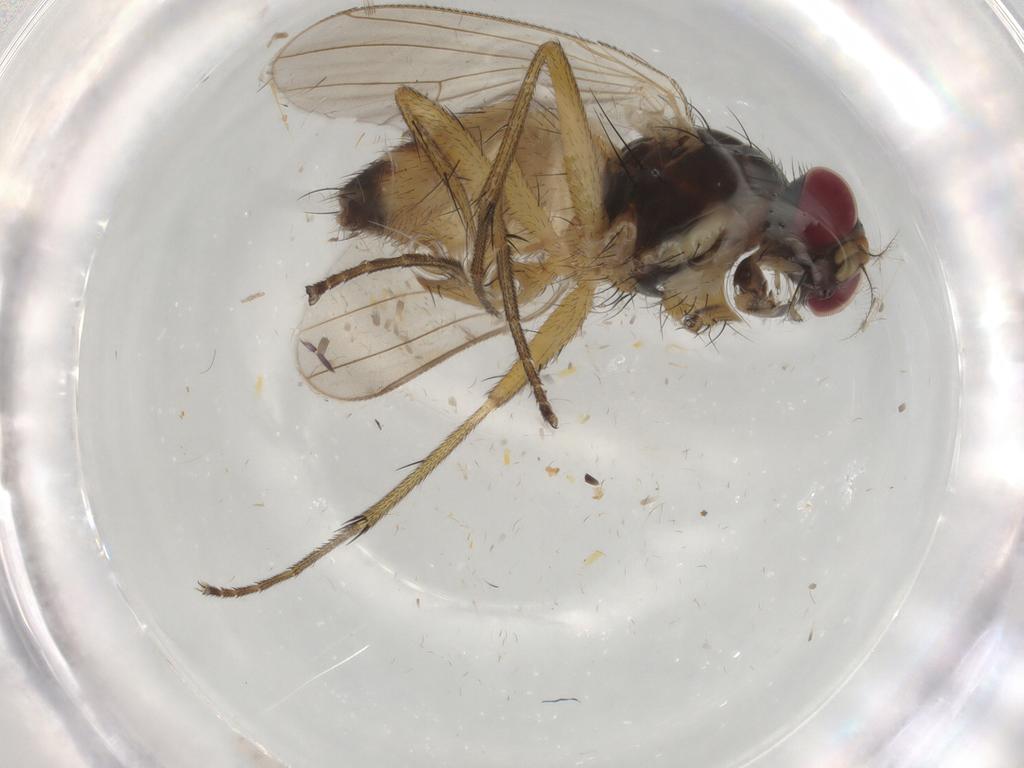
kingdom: Animalia
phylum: Arthropoda
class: Insecta
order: Diptera
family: Muscidae
